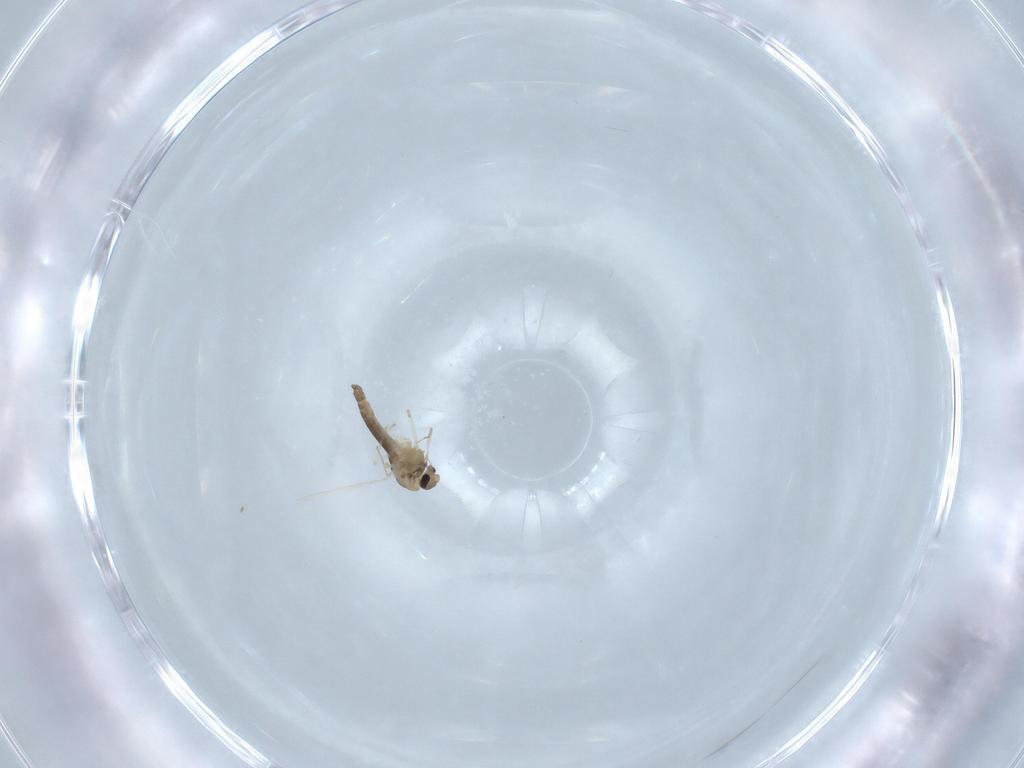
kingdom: Animalia
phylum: Arthropoda
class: Insecta
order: Diptera
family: Chironomidae
